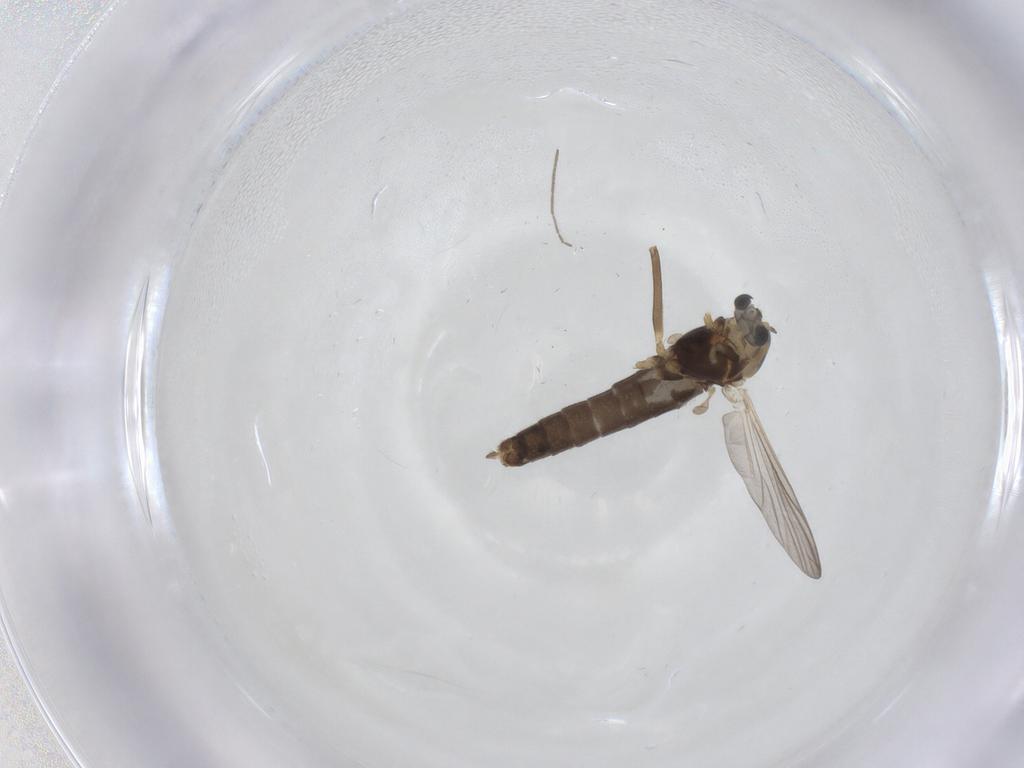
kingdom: Animalia
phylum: Arthropoda
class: Insecta
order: Diptera
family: Chironomidae
